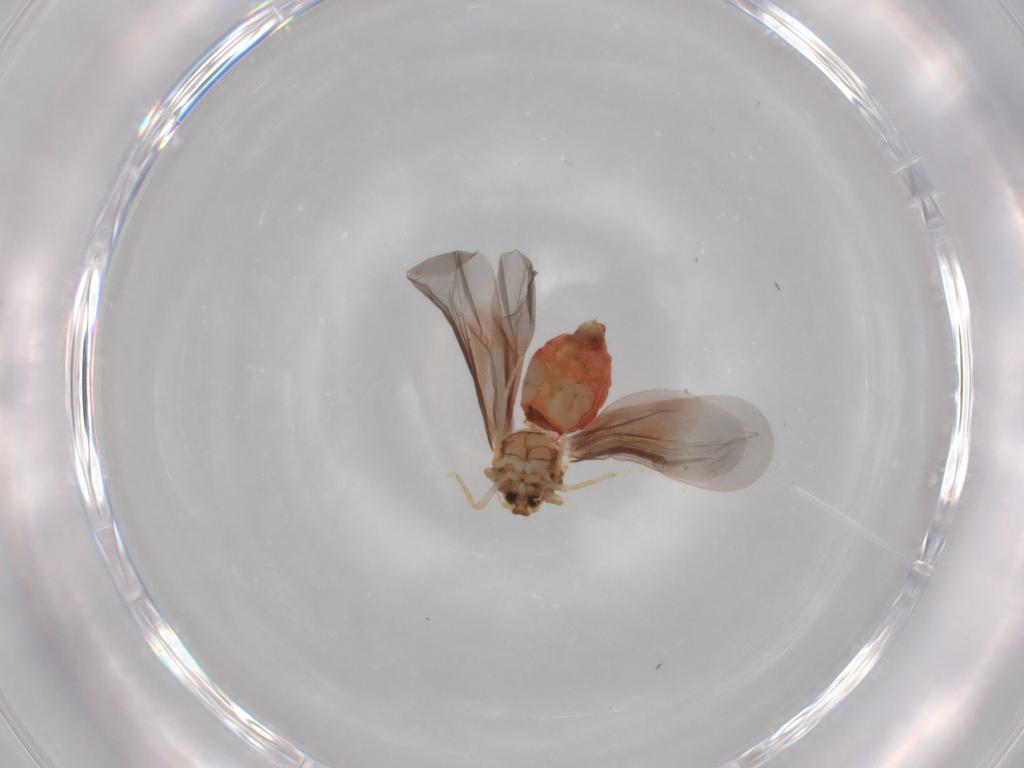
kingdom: Animalia
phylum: Arthropoda
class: Insecta
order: Hemiptera
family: Aleyrodidae
